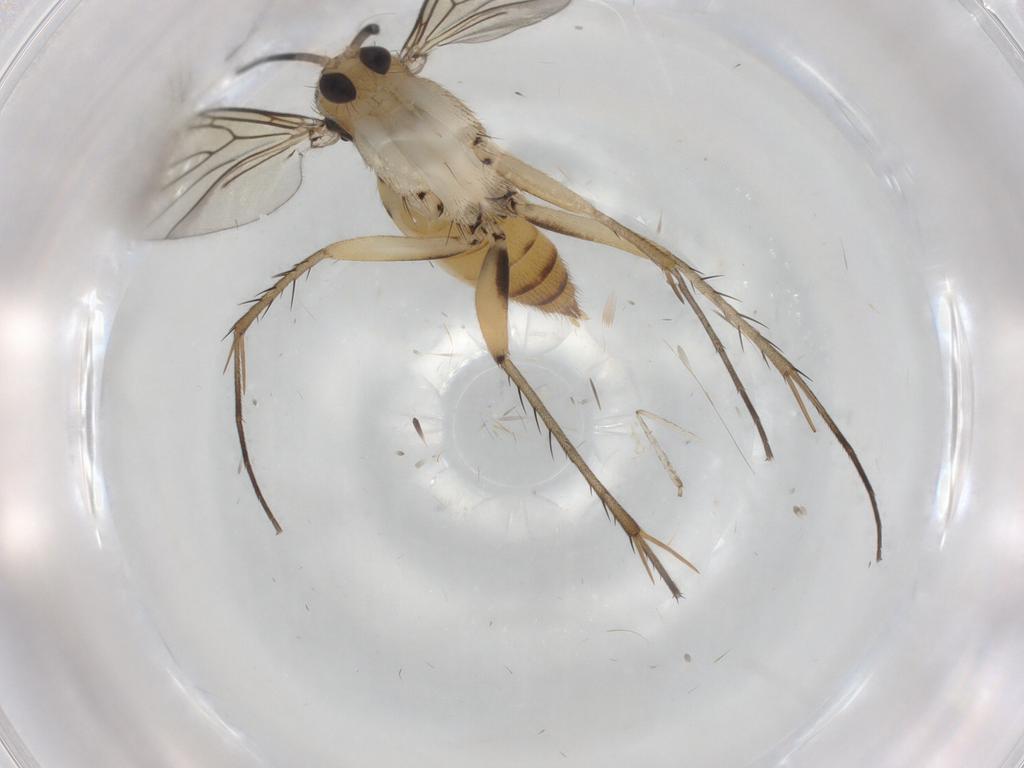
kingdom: Animalia
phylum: Arthropoda
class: Insecta
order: Diptera
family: Mycetophilidae
